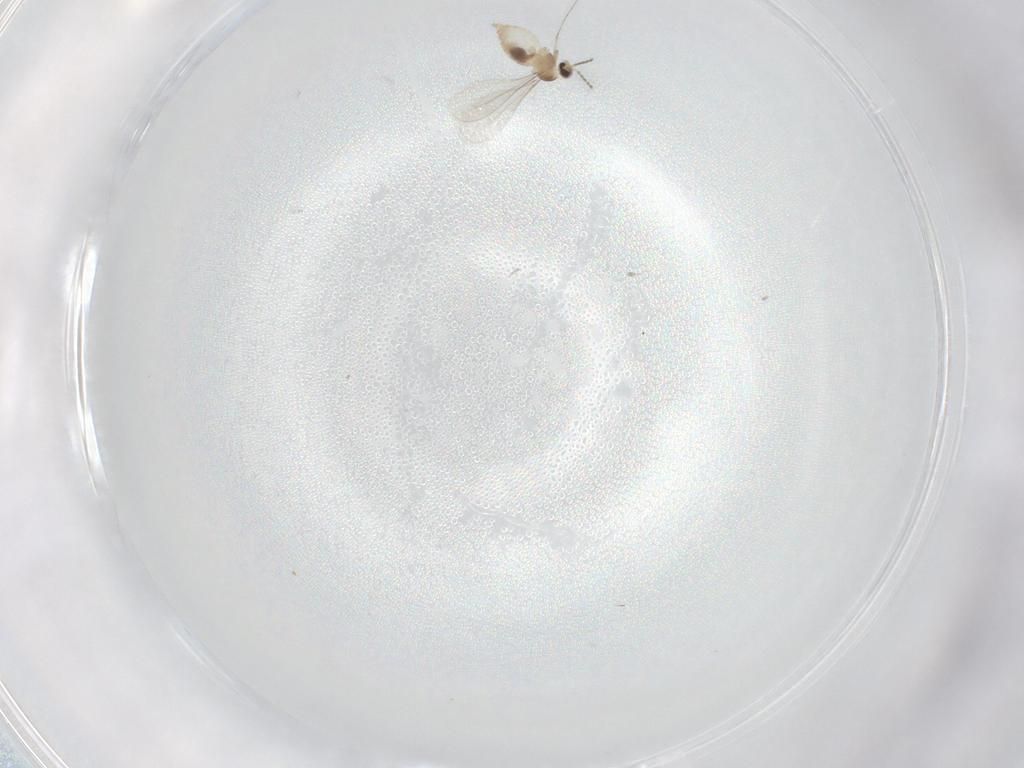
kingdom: Animalia
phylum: Arthropoda
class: Insecta
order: Diptera
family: Cecidomyiidae
